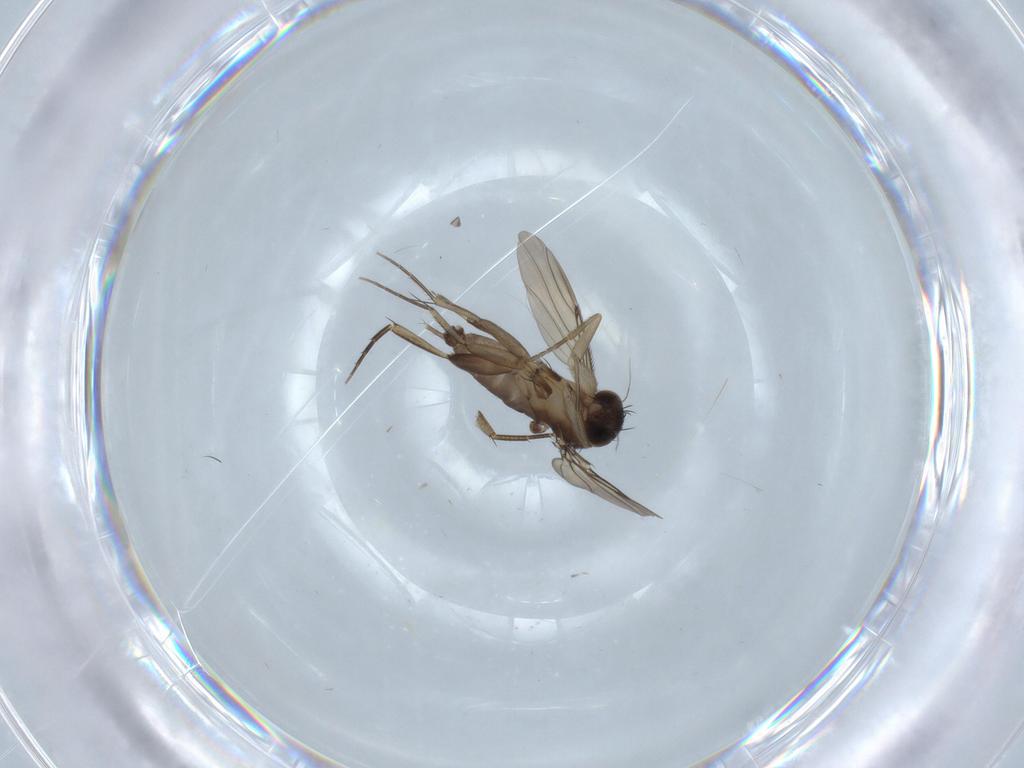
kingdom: Animalia
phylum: Arthropoda
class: Insecta
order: Diptera
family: Phoridae
